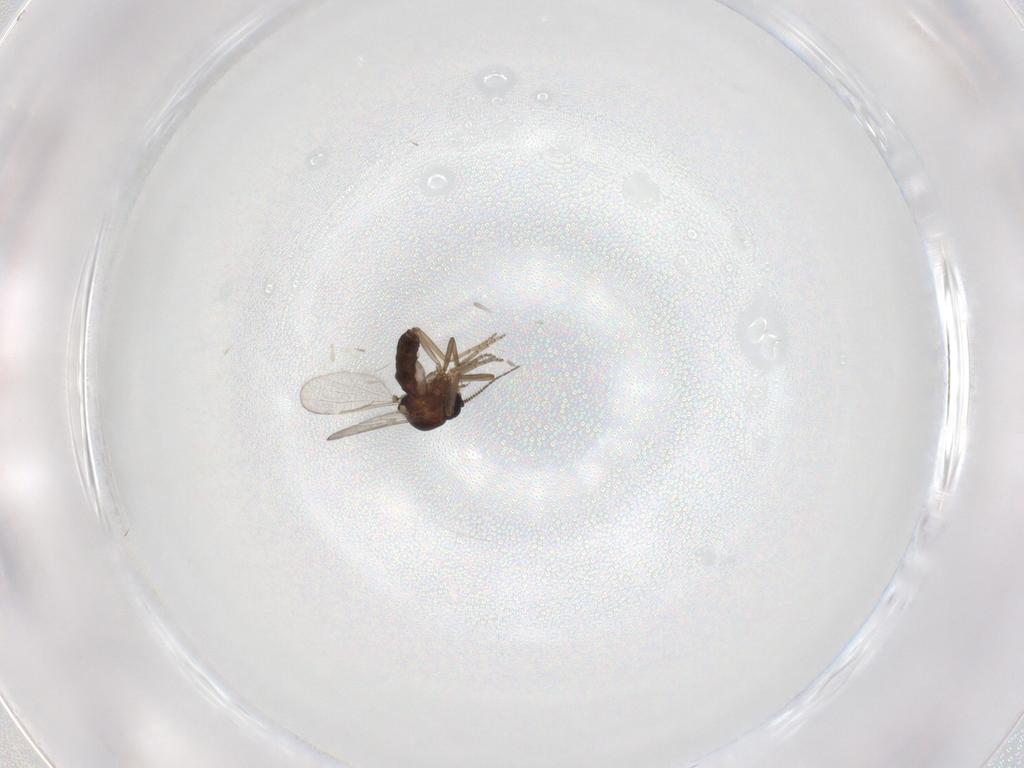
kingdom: Animalia
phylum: Arthropoda
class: Insecta
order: Diptera
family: Ceratopogonidae
